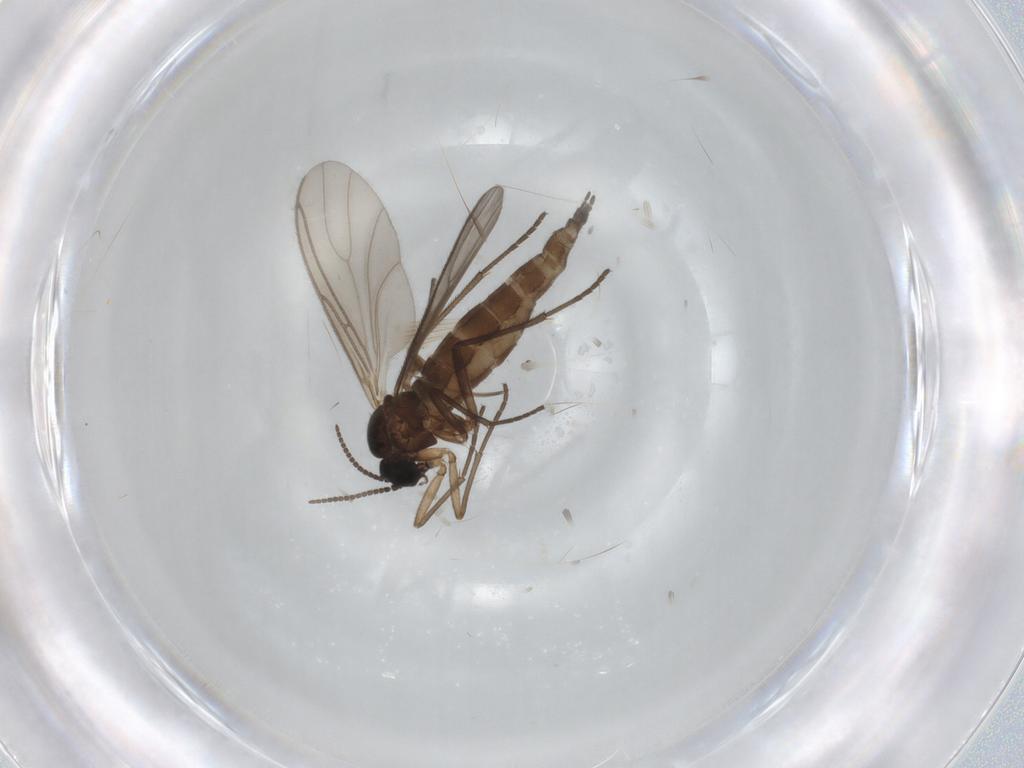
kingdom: Animalia
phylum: Arthropoda
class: Insecta
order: Diptera
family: Sciaridae
